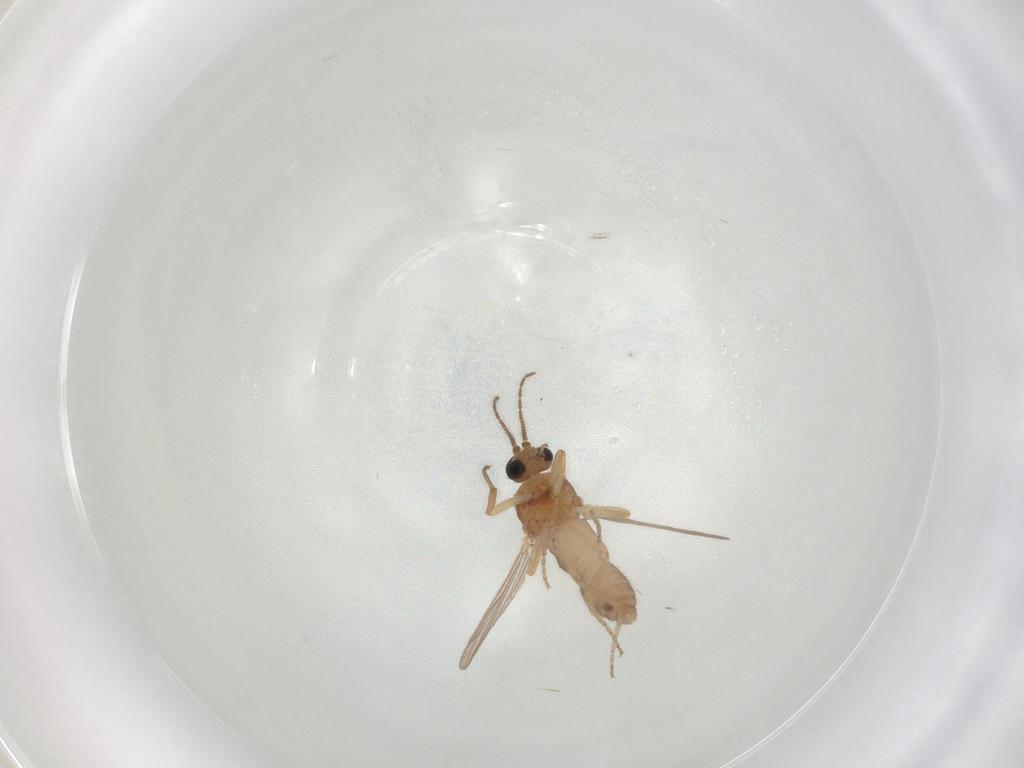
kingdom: Animalia
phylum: Arthropoda
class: Insecta
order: Diptera
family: Ceratopogonidae
